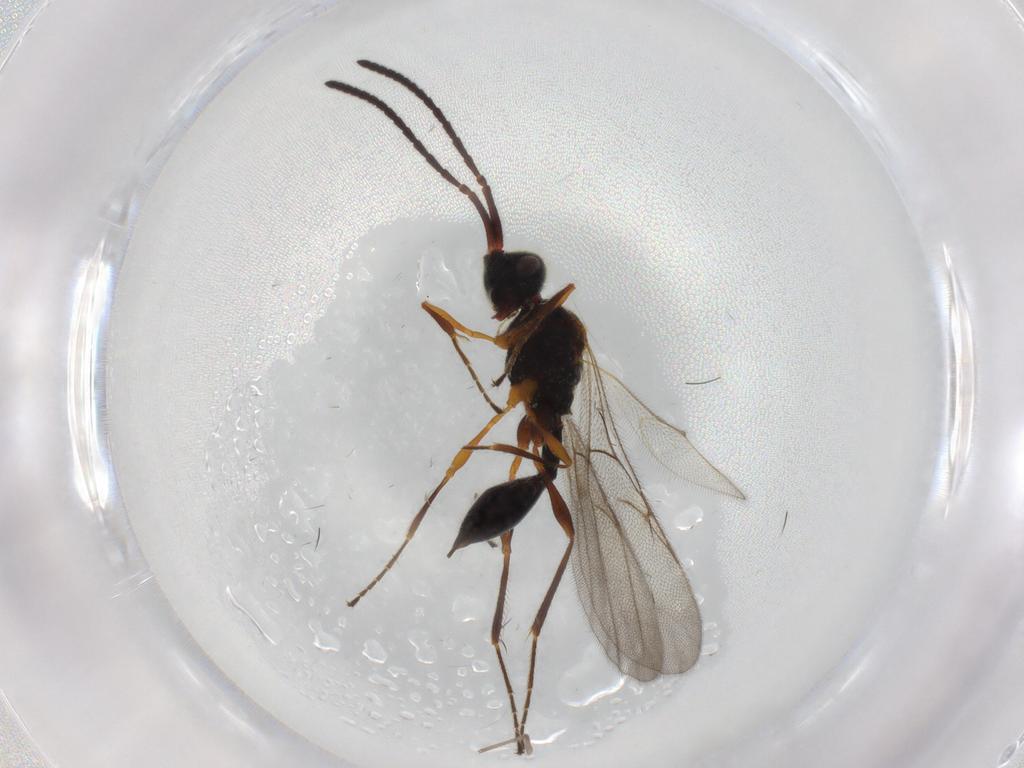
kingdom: Animalia
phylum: Arthropoda
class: Insecta
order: Hymenoptera
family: Diapriidae
